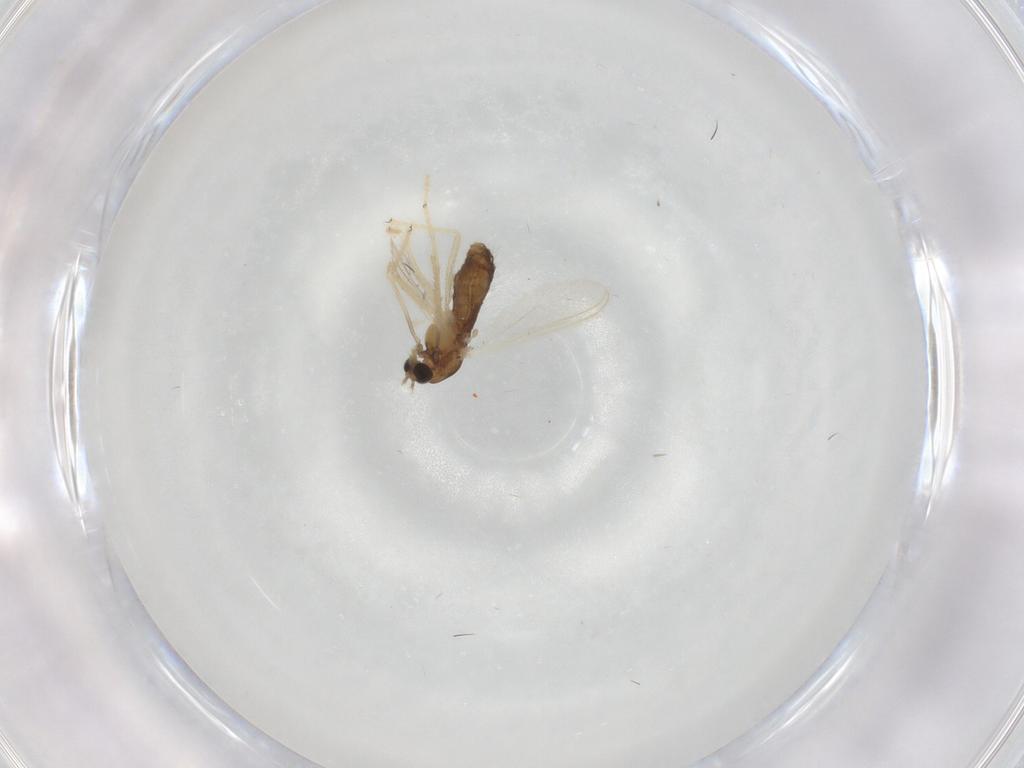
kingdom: Animalia
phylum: Arthropoda
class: Insecta
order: Diptera
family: Chironomidae
